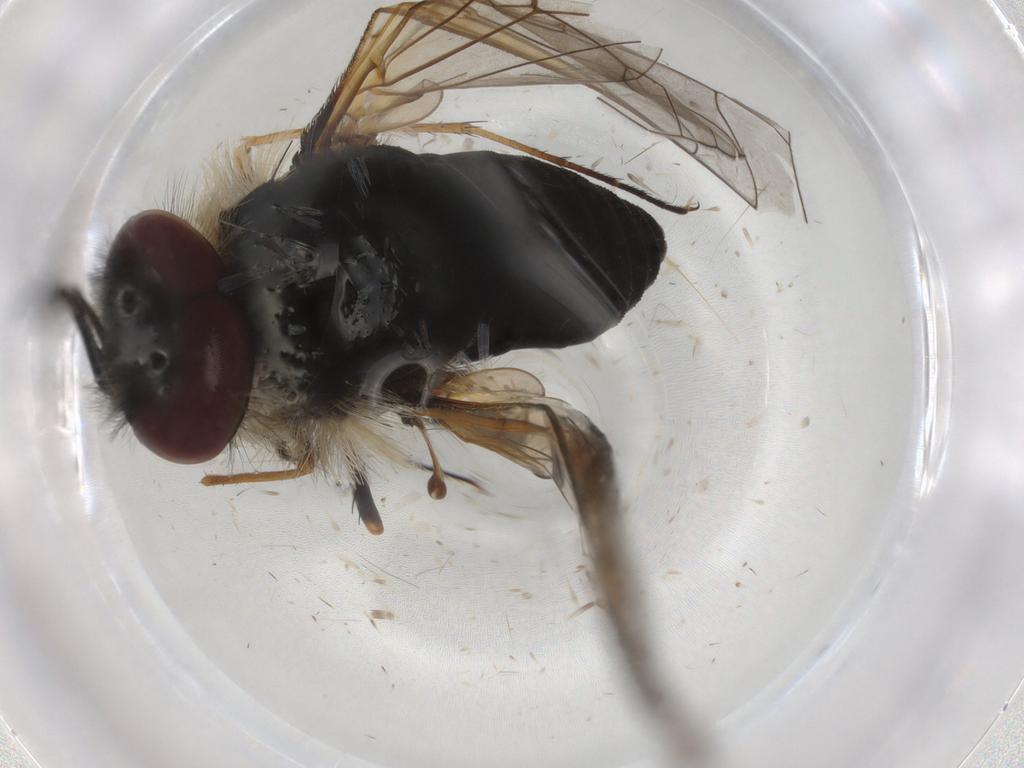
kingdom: Animalia
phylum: Arthropoda
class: Insecta
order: Diptera
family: Bombyliidae
